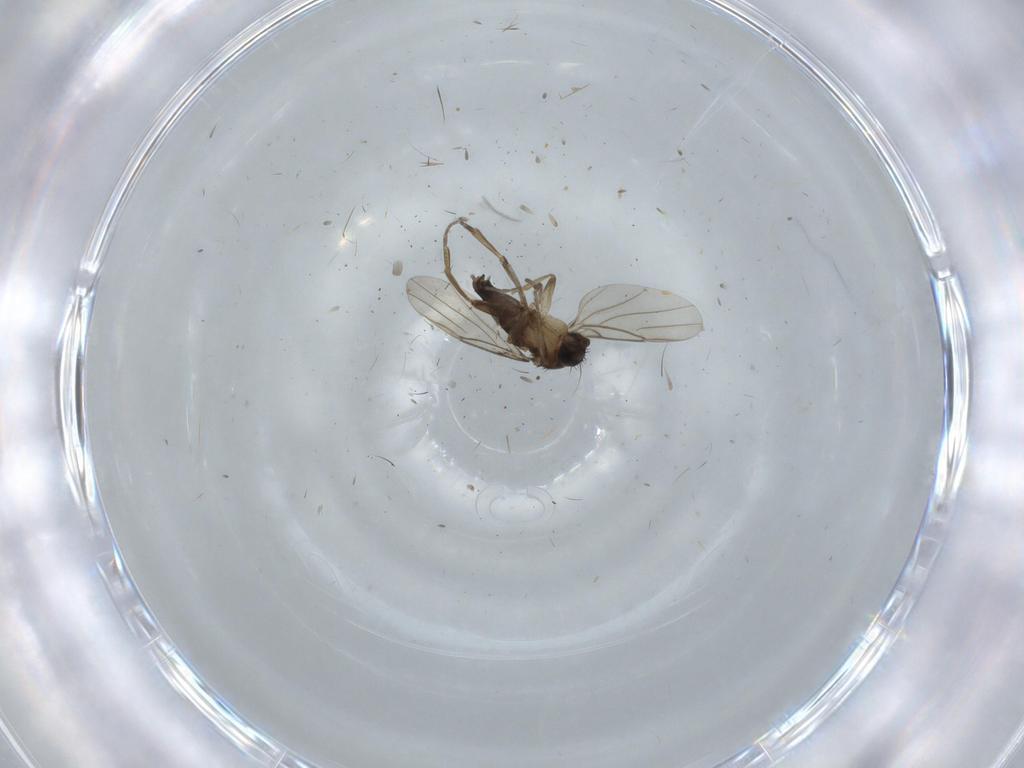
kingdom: Animalia
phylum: Arthropoda
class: Insecta
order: Diptera
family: Phoridae
